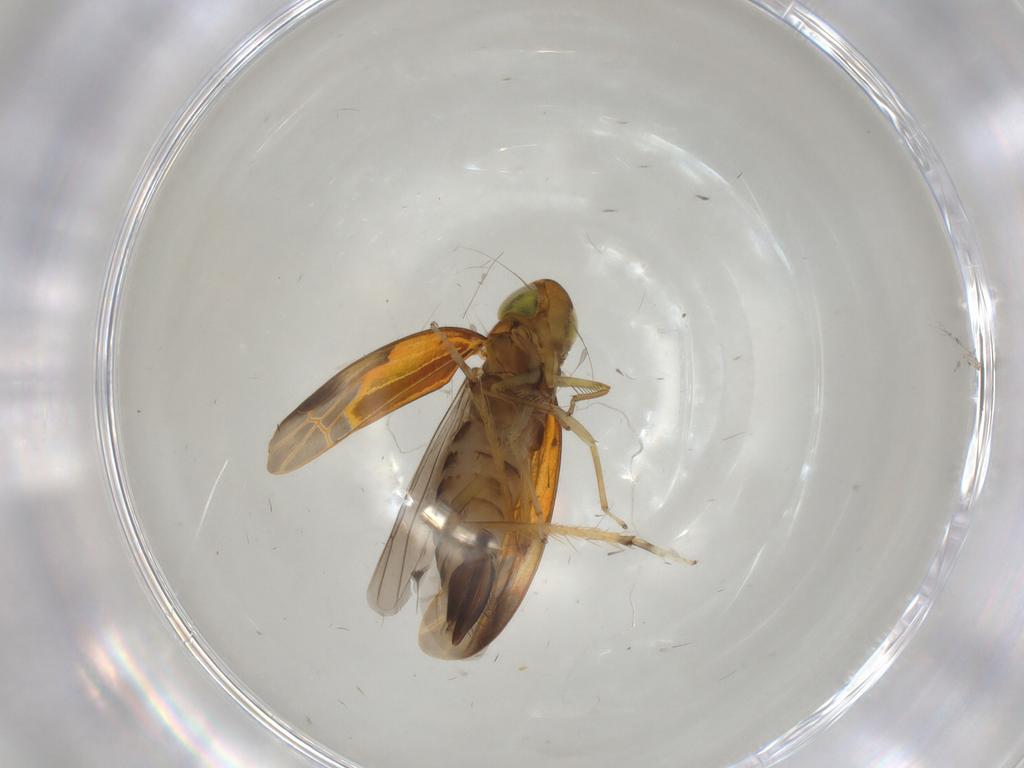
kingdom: Animalia
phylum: Arthropoda
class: Insecta
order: Hemiptera
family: Cicadellidae
